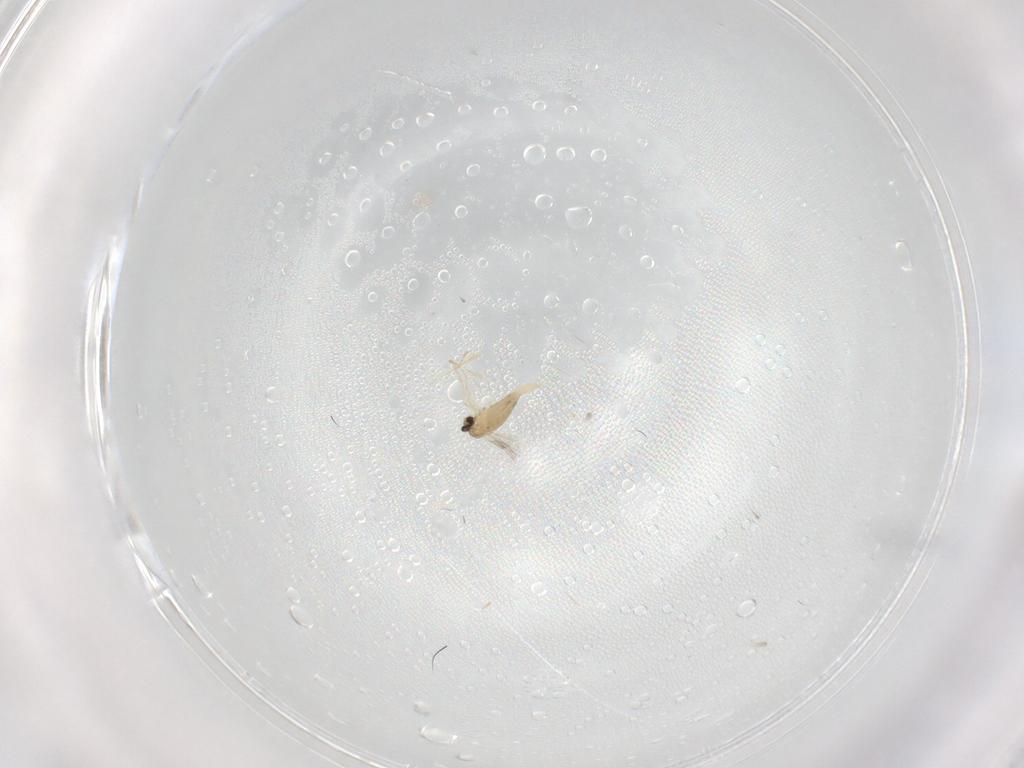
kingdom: Animalia
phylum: Arthropoda
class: Insecta
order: Diptera
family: Cecidomyiidae
